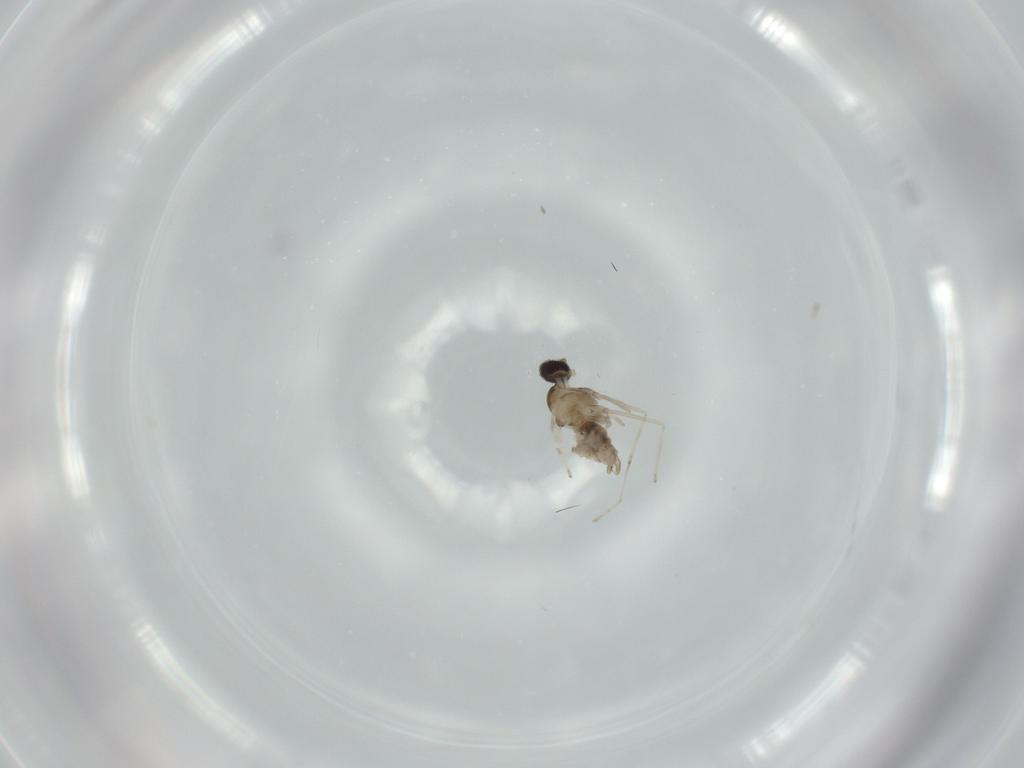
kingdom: Animalia
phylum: Arthropoda
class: Insecta
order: Diptera
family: Cecidomyiidae
